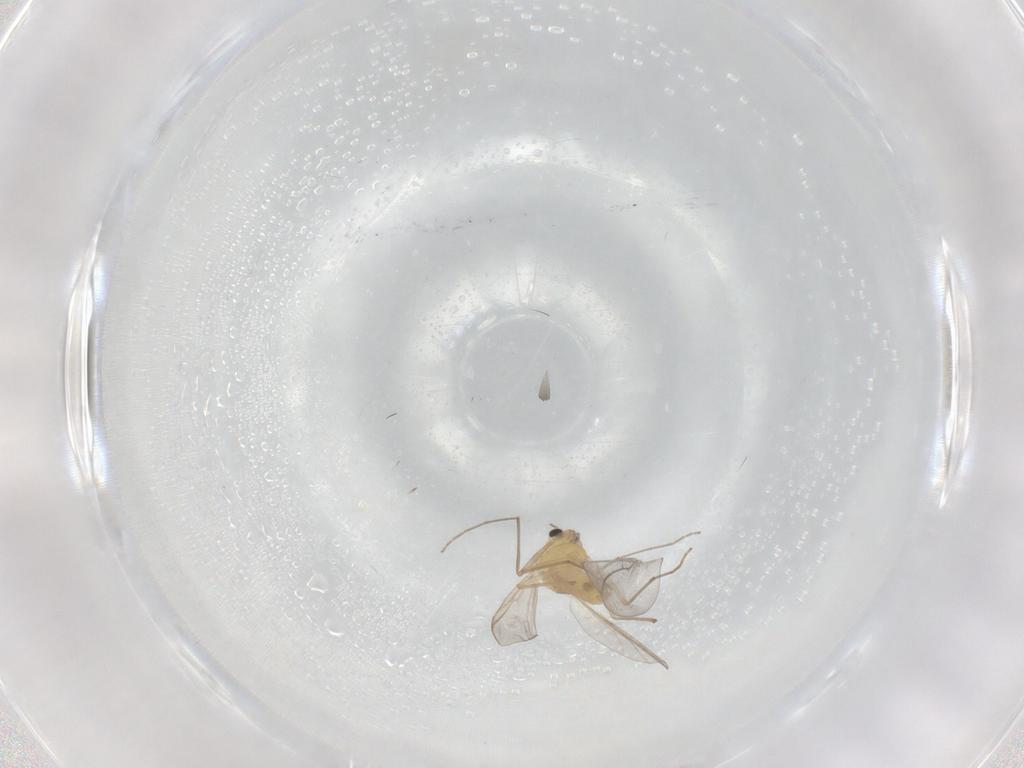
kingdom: Animalia
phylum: Arthropoda
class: Insecta
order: Diptera
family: Chironomidae
